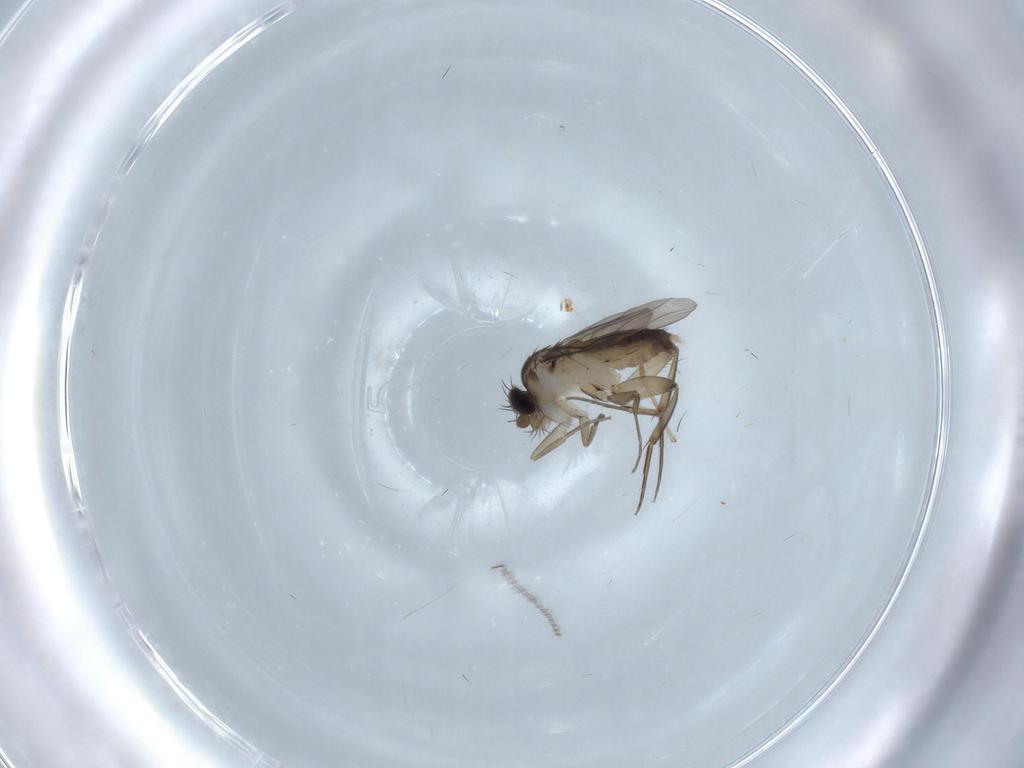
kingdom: Animalia
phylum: Arthropoda
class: Insecta
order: Diptera
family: Phoridae
